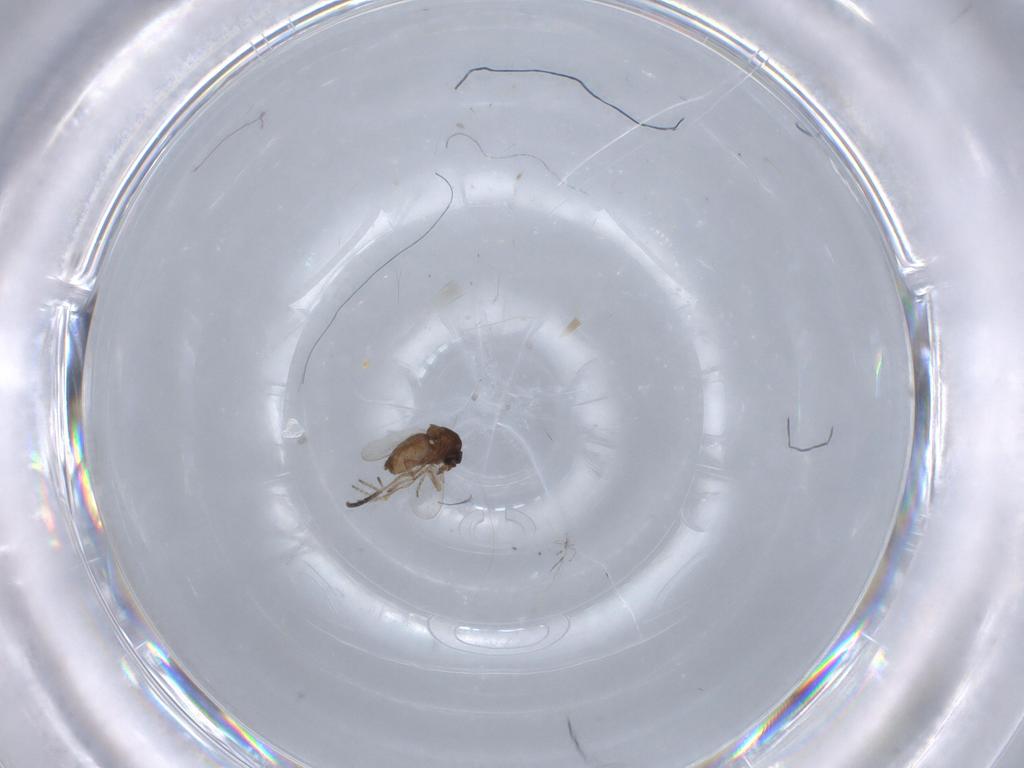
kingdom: Animalia
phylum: Arthropoda
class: Insecta
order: Diptera
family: Ceratopogonidae
